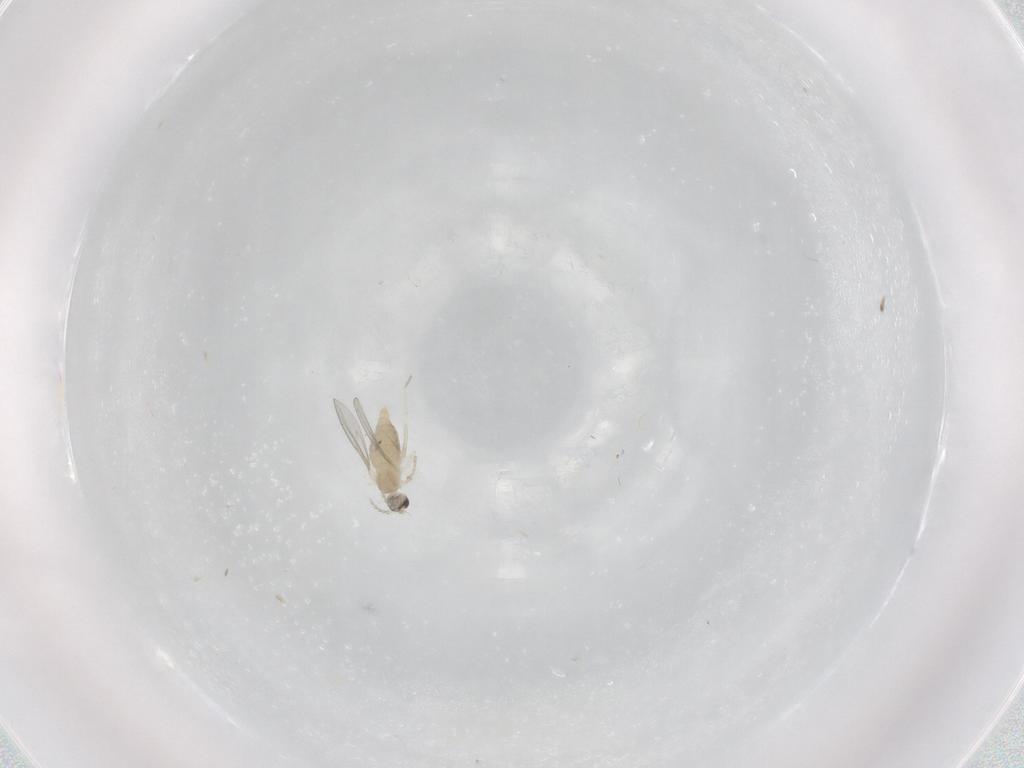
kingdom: Animalia
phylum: Arthropoda
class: Insecta
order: Diptera
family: Cecidomyiidae
